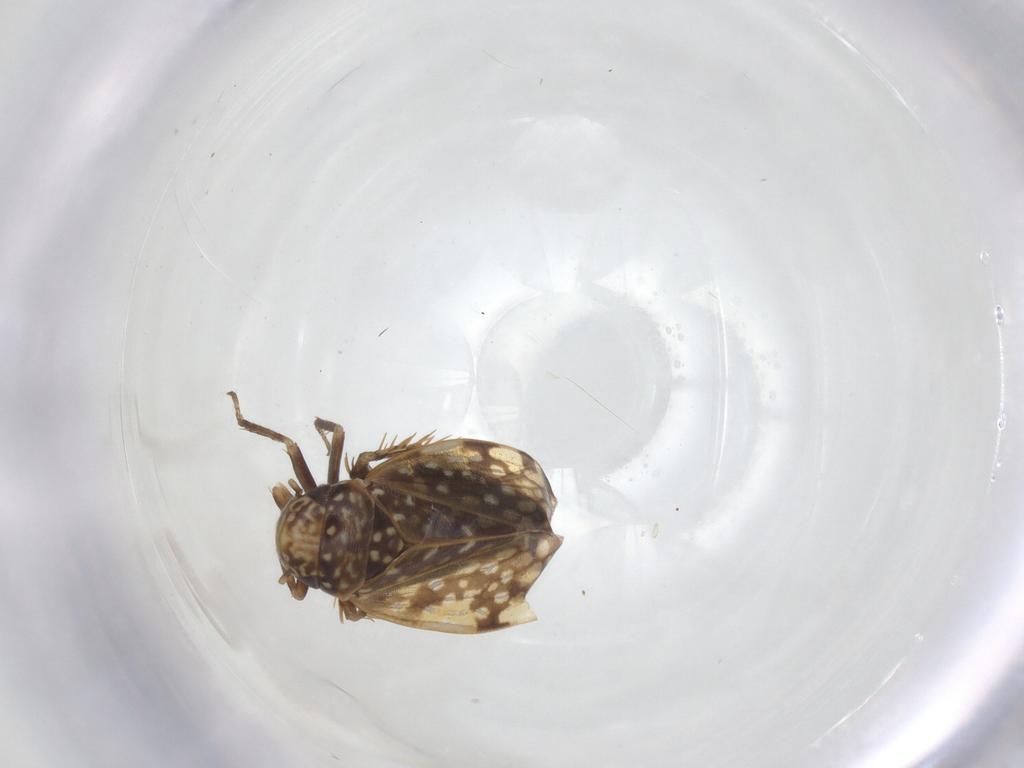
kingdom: Animalia
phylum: Arthropoda
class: Insecta
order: Hemiptera
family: Cicadellidae
